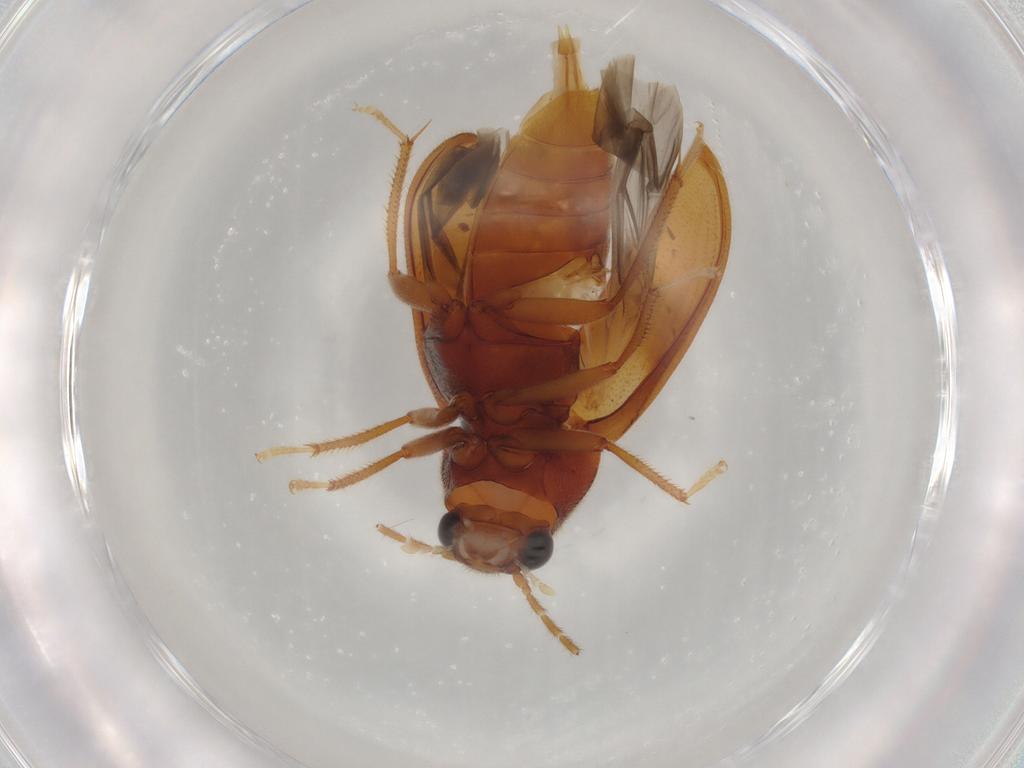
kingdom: Animalia
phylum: Arthropoda
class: Insecta
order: Coleoptera
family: Ptilodactylidae
